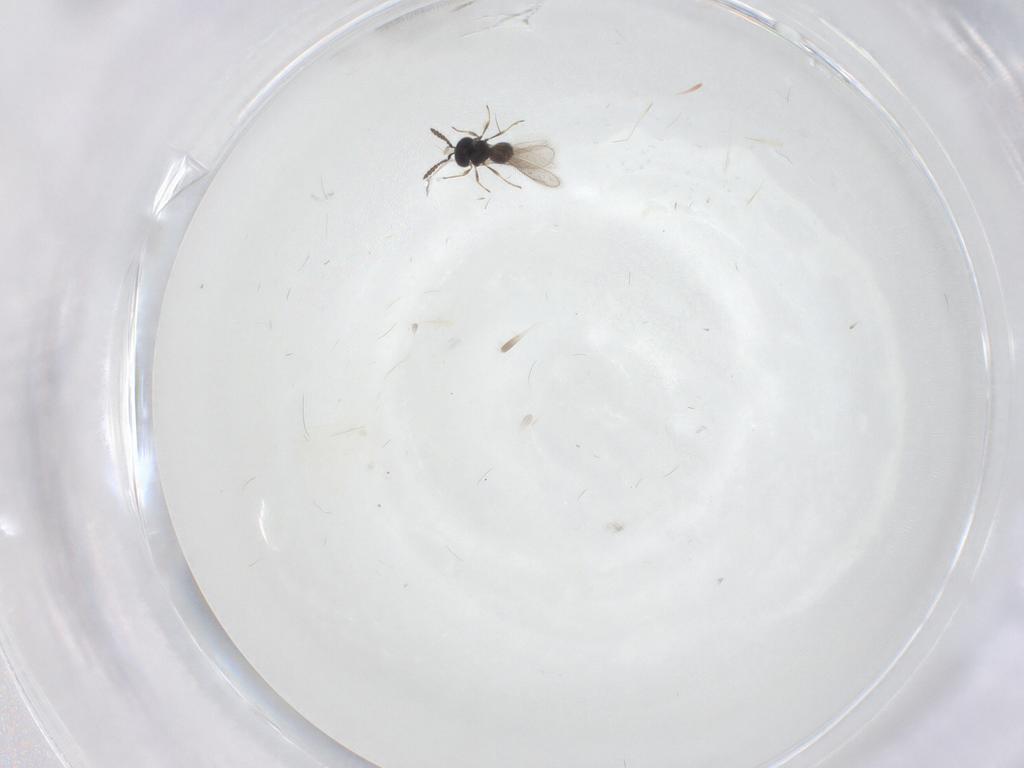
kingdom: Animalia
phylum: Arthropoda
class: Insecta
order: Hymenoptera
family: Scelionidae
